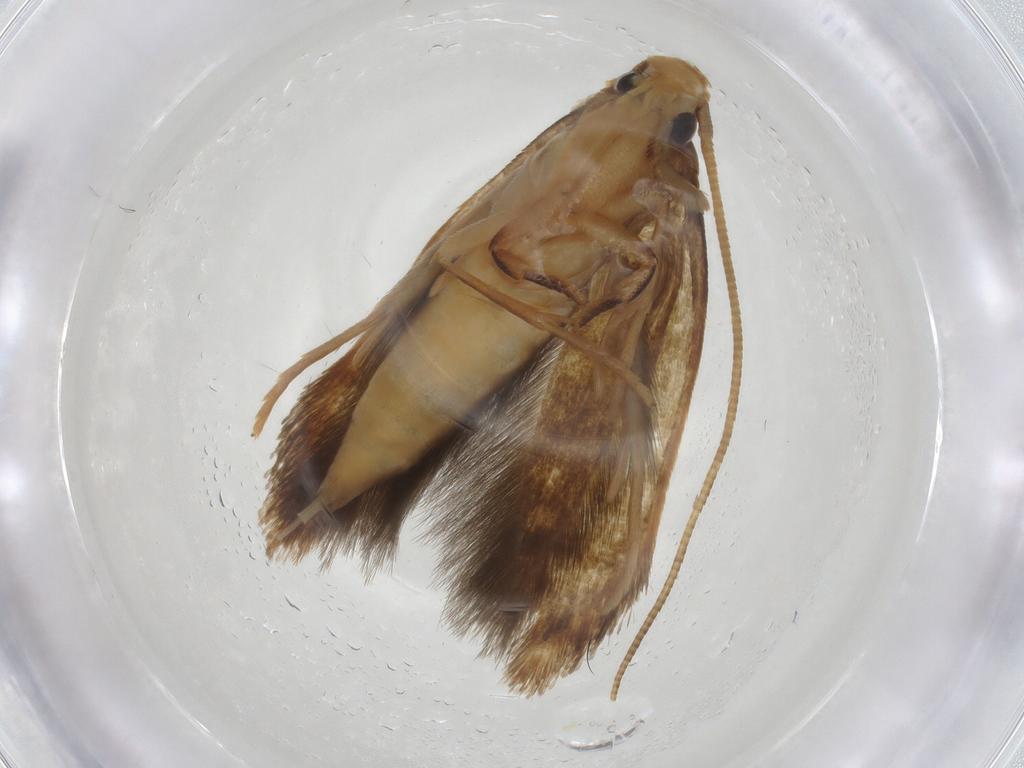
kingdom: Animalia
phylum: Arthropoda
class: Insecta
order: Lepidoptera
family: Tineidae
